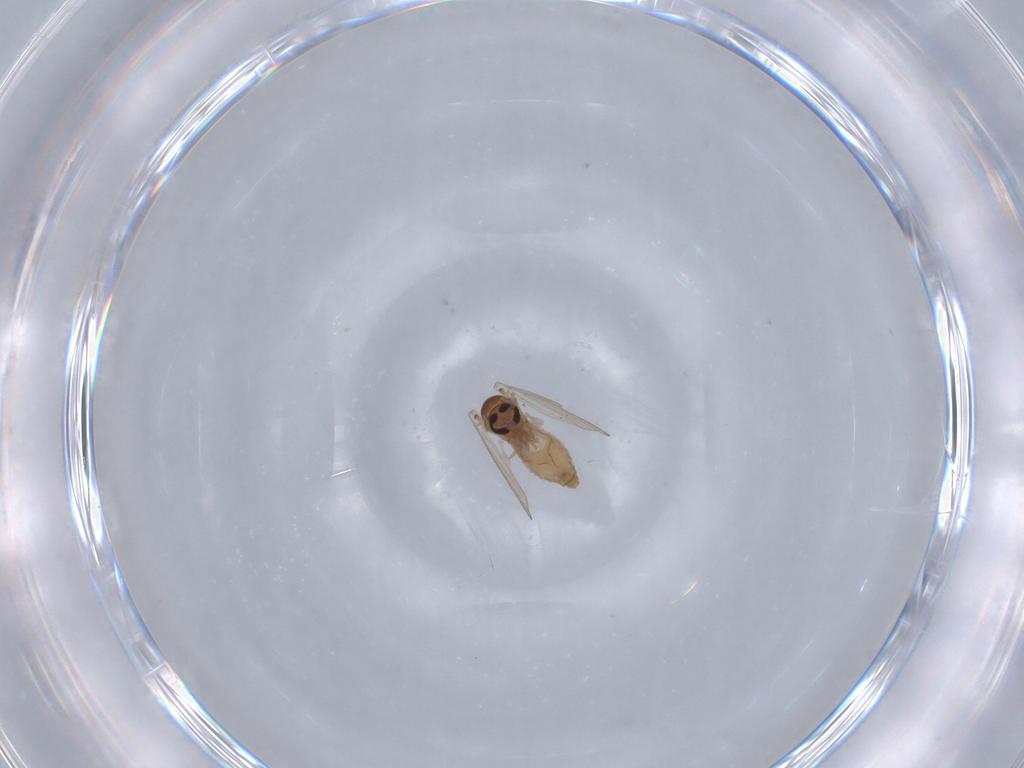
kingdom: Animalia
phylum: Arthropoda
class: Insecta
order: Diptera
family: Psychodidae
